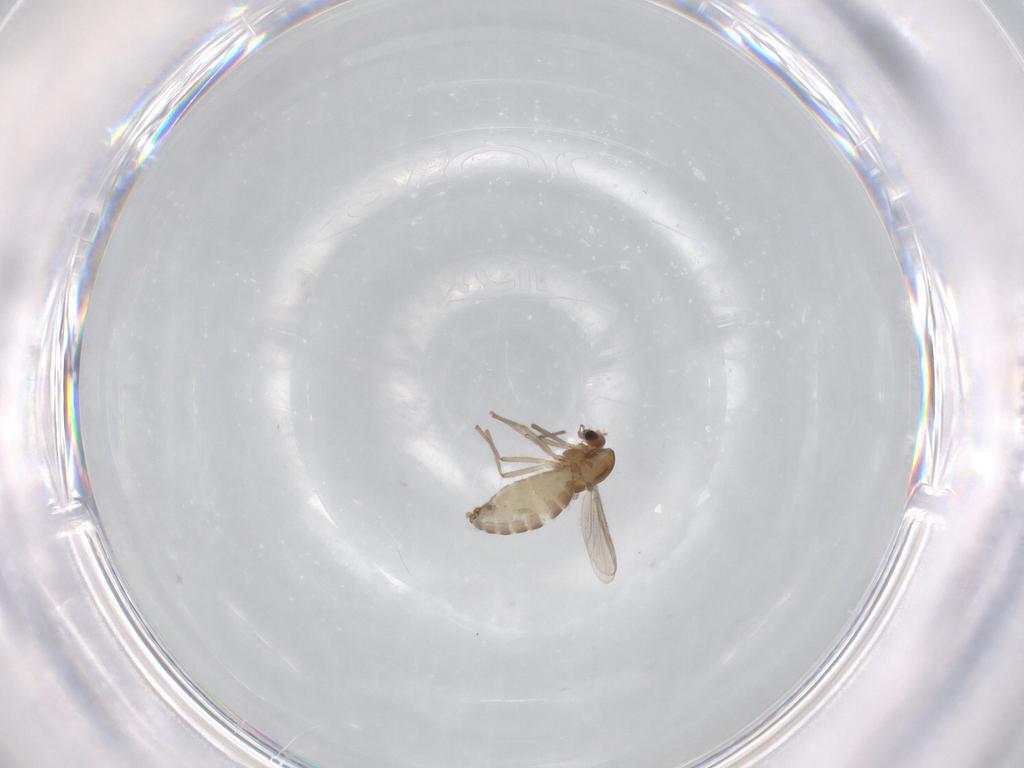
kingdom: Animalia
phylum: Arthropoda
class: Insecta
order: Diptera
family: Chironomidae
